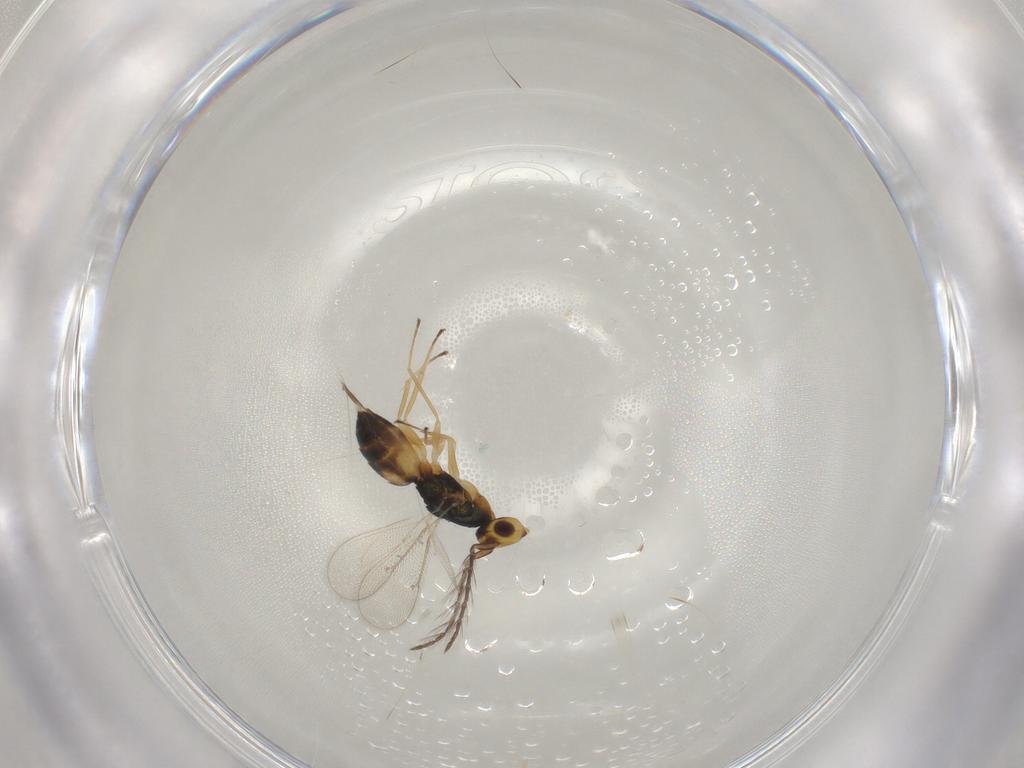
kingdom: Animalia
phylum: Arthropoda
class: Insecta
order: Hymenoptera
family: Eulophidae
